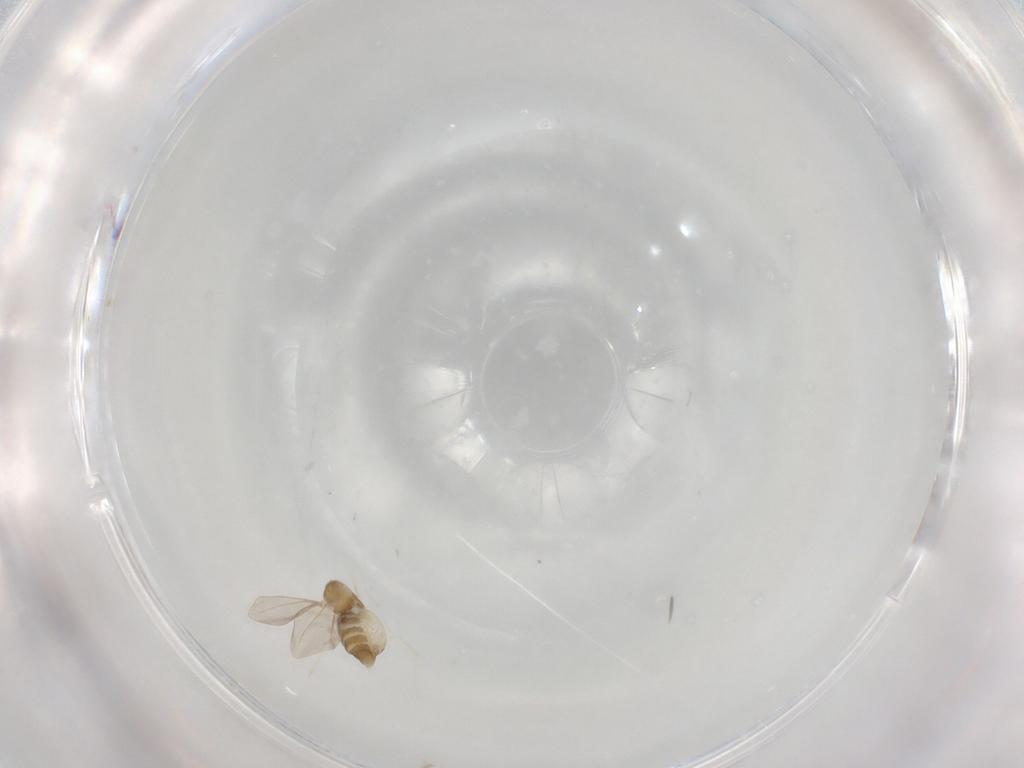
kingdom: Animalia
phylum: Arthropoda
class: Insecta
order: Diptera
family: Cecidomyiidae
